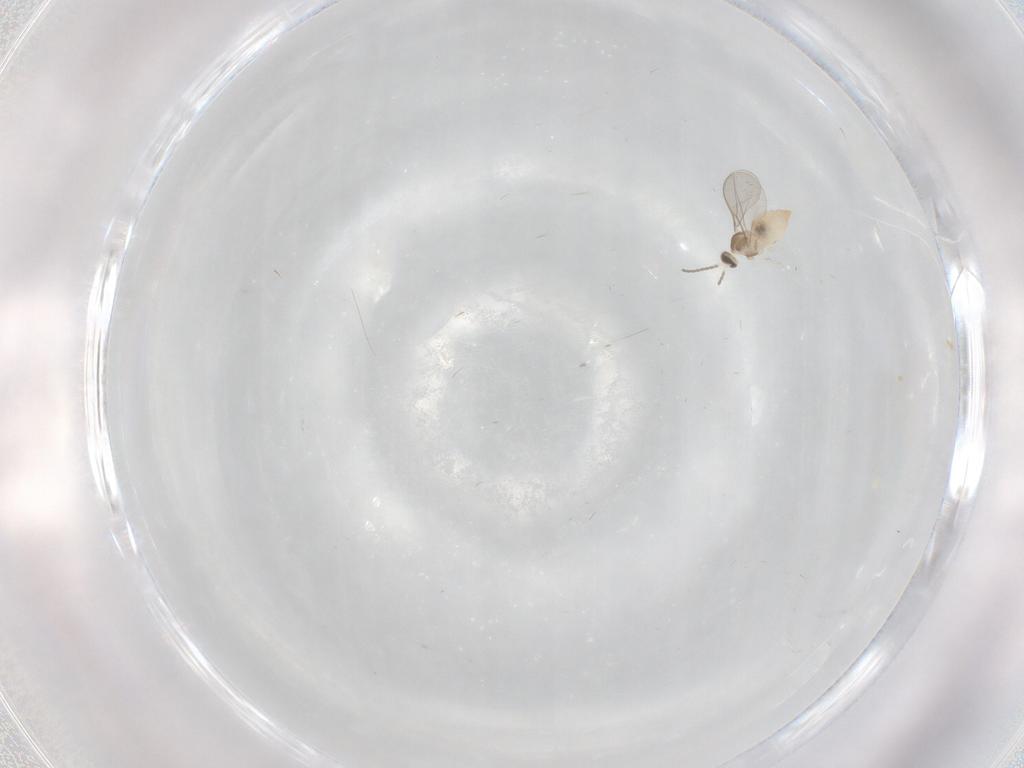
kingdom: Animalia
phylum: Arthropoda
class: Insecta
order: Diptera
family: Cecidomyiidae
